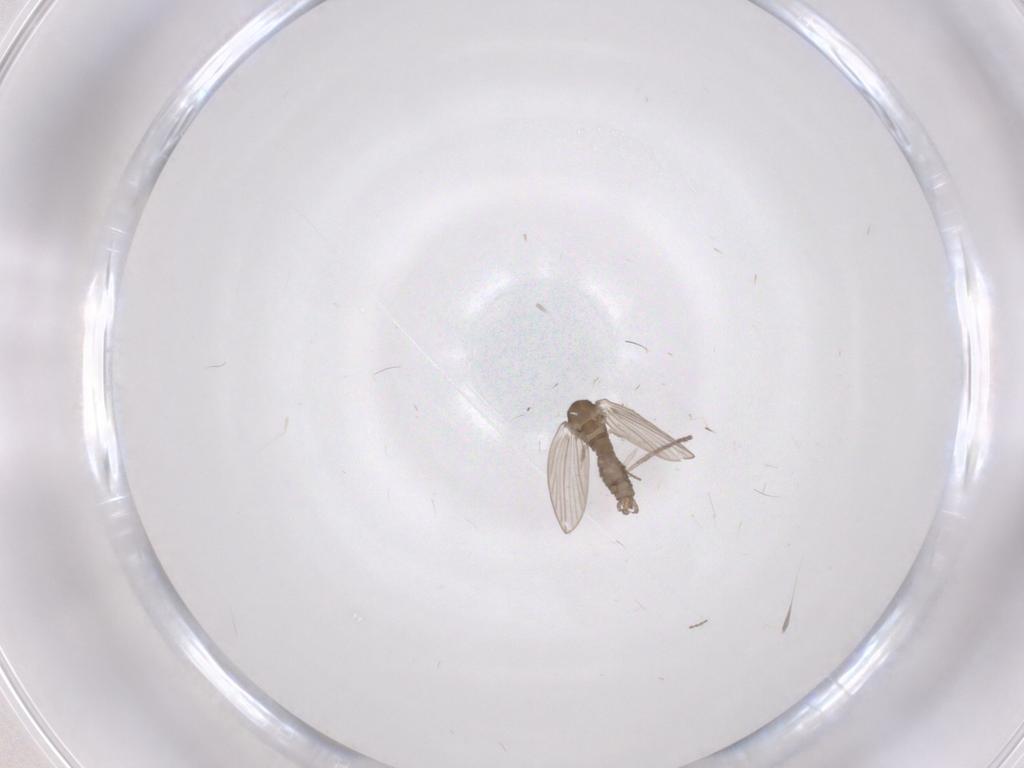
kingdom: Animalia
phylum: Arthropoda
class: Insecta
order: Diptera
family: Psychodidae
